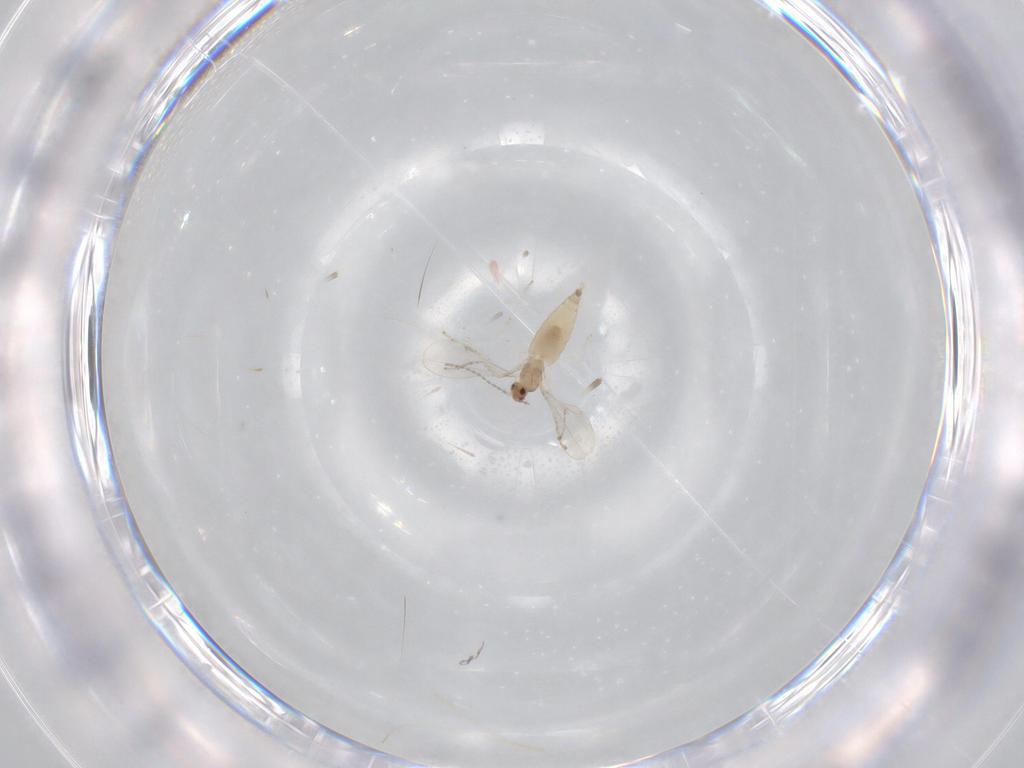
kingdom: Animalia
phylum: Arthropoda
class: Insecta
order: Diptera
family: Cecidomyiidae
